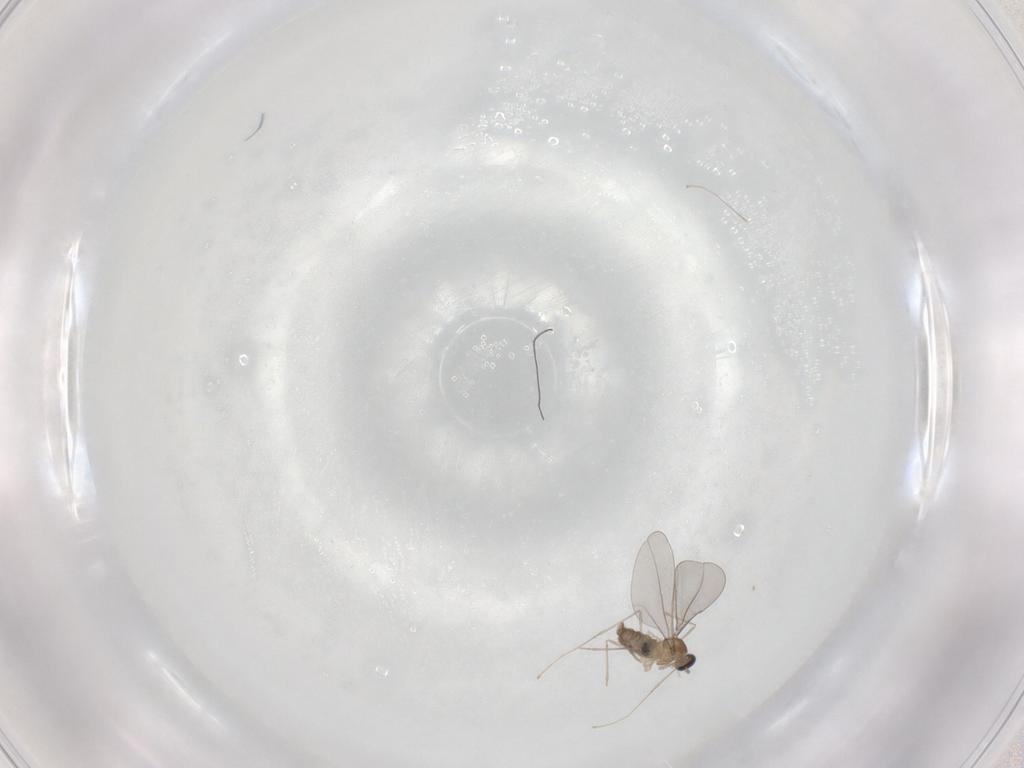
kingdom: Animalia
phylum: Arthropoda
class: Insecta
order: Diptera
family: Cecidomyiidae
